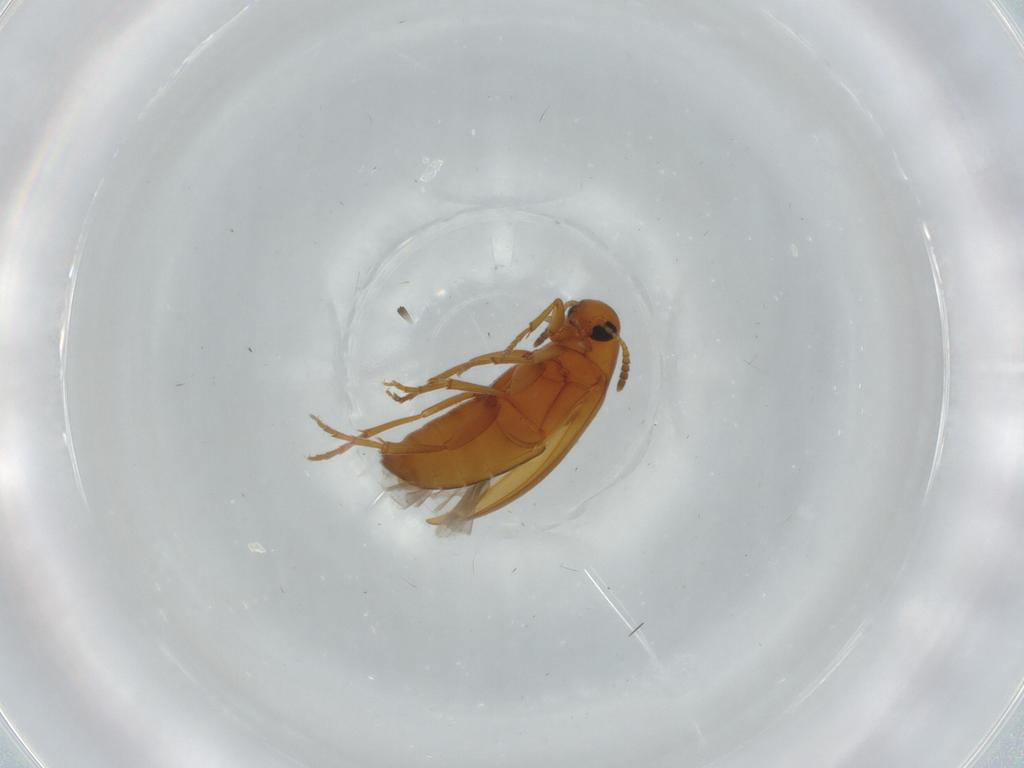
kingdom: Animalia
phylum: Arthropoda
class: Insecta
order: Coleoptera
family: Scraptiidae
